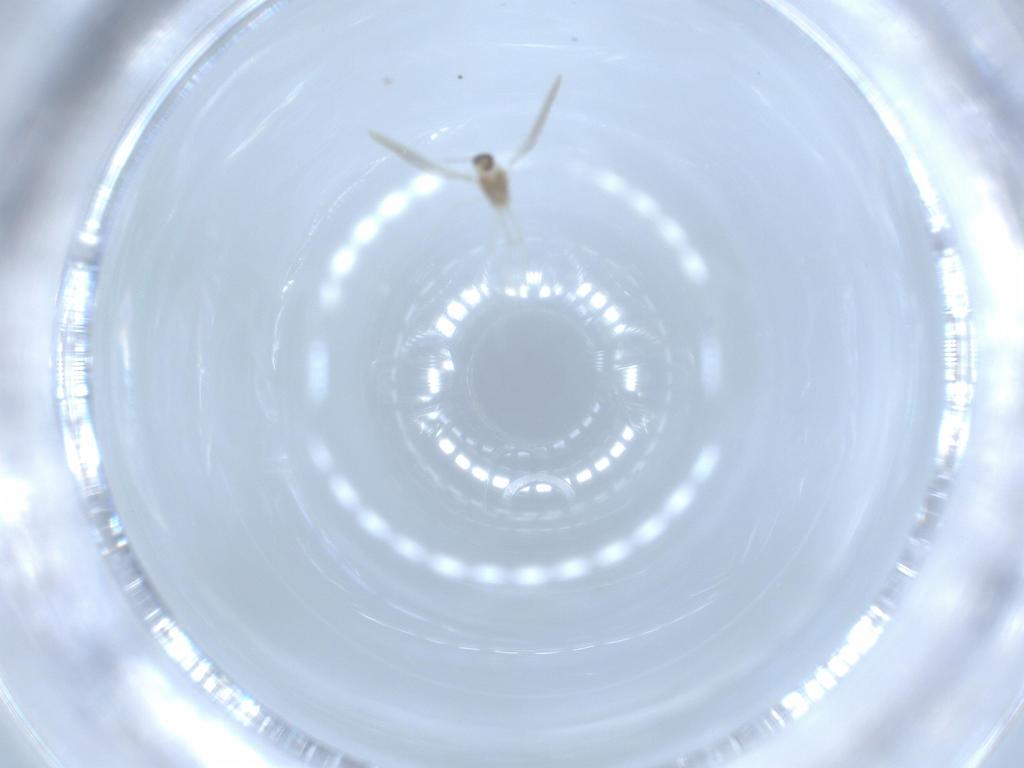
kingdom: Animalia
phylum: Arthropoda
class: Insecta
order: Diptera
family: Cecidomyiidae
